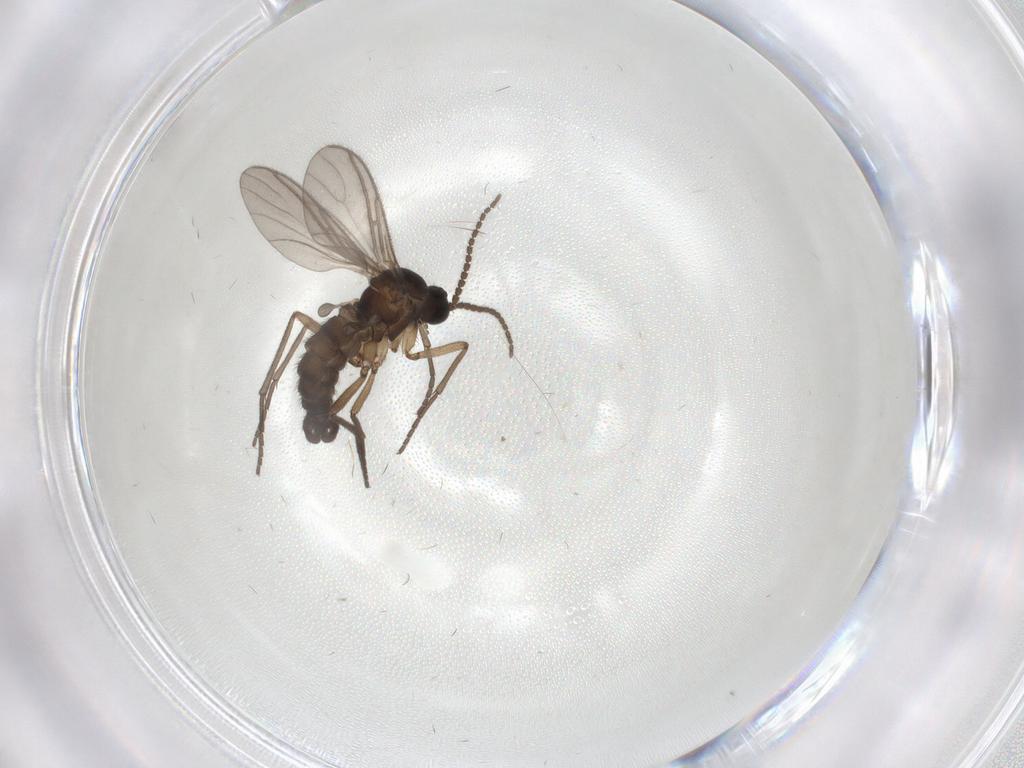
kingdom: Animalia
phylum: Arthropoda
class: Insecta
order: Diptera
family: Sciaridae
